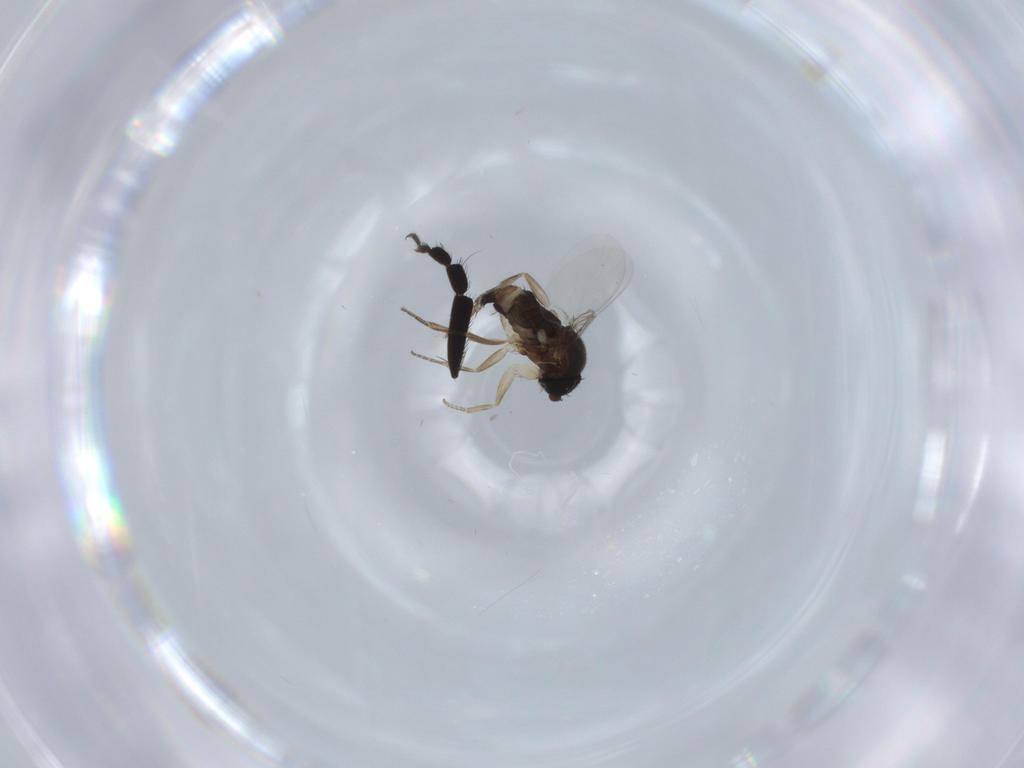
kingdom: Animalia
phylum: Arthropoda
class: Insecta
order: Diptera
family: Phoridae
